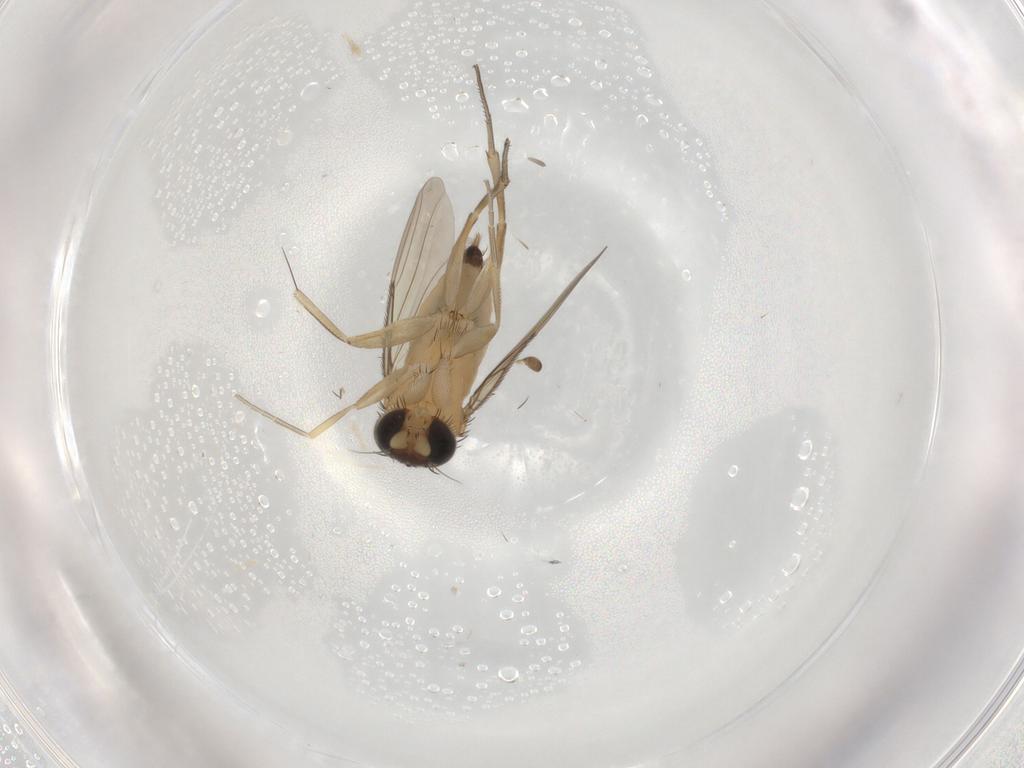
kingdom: Animalia
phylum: Arthropoda
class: Insecta
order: Diptera
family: Phoridae
